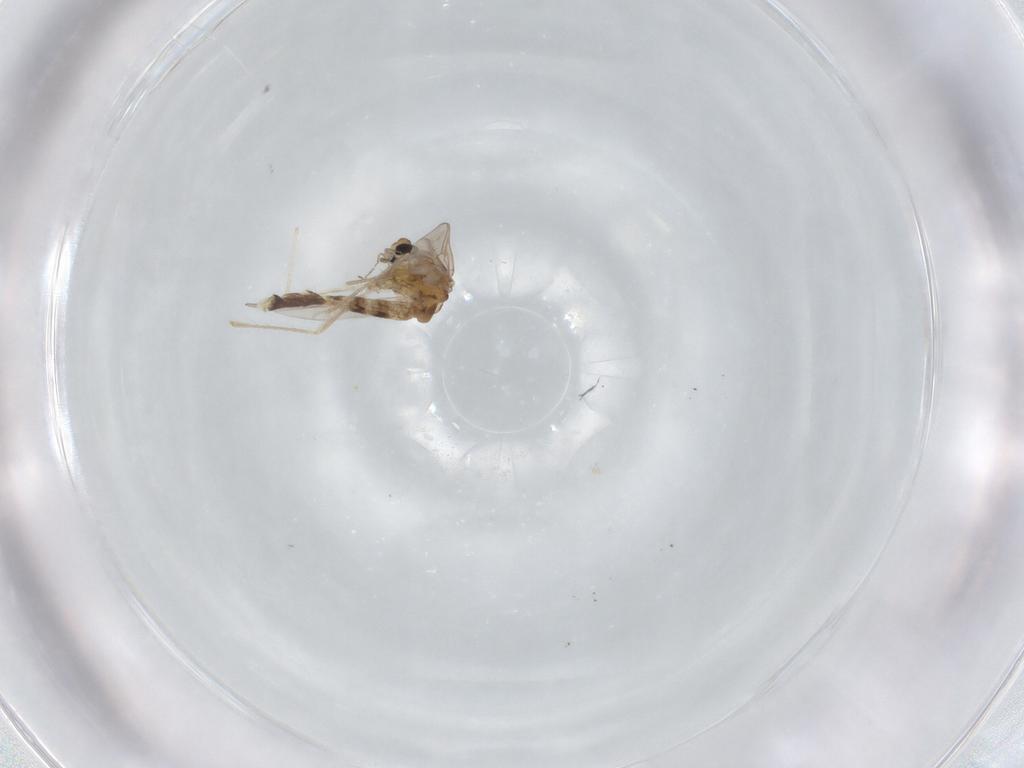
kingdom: Animalia
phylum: Arthropoda
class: Insecta
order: Diptera
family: Chironomidae
